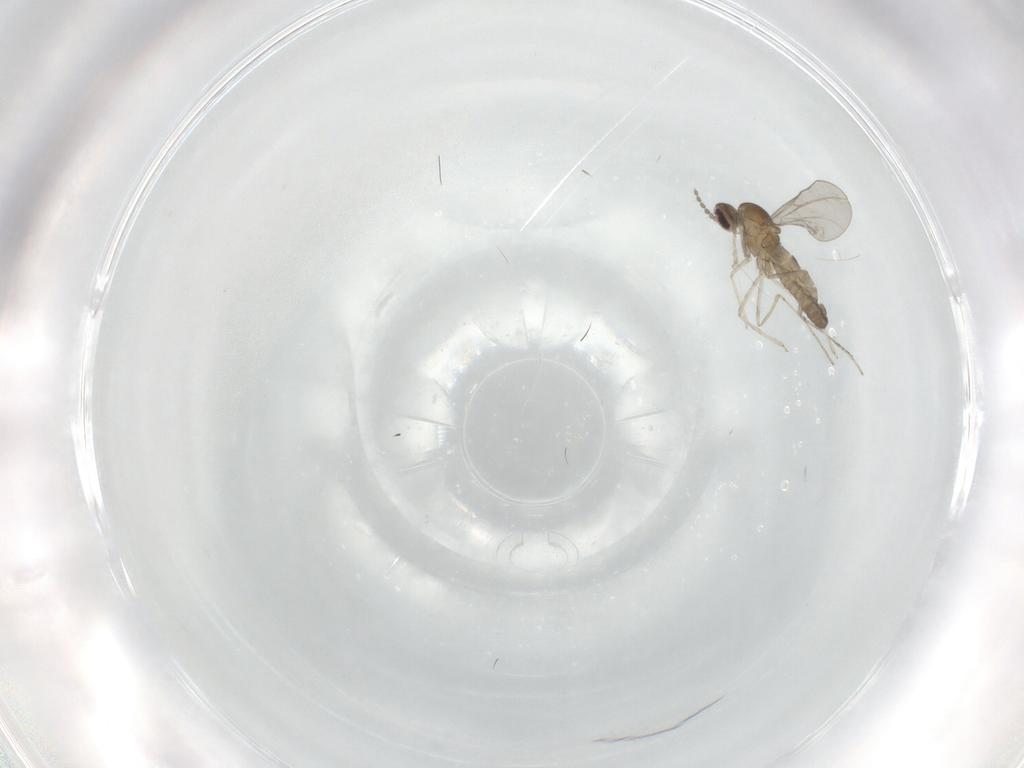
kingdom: Animalia
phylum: Arthropoda
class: Insecta
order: Diptera
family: Cecidomyiidae
